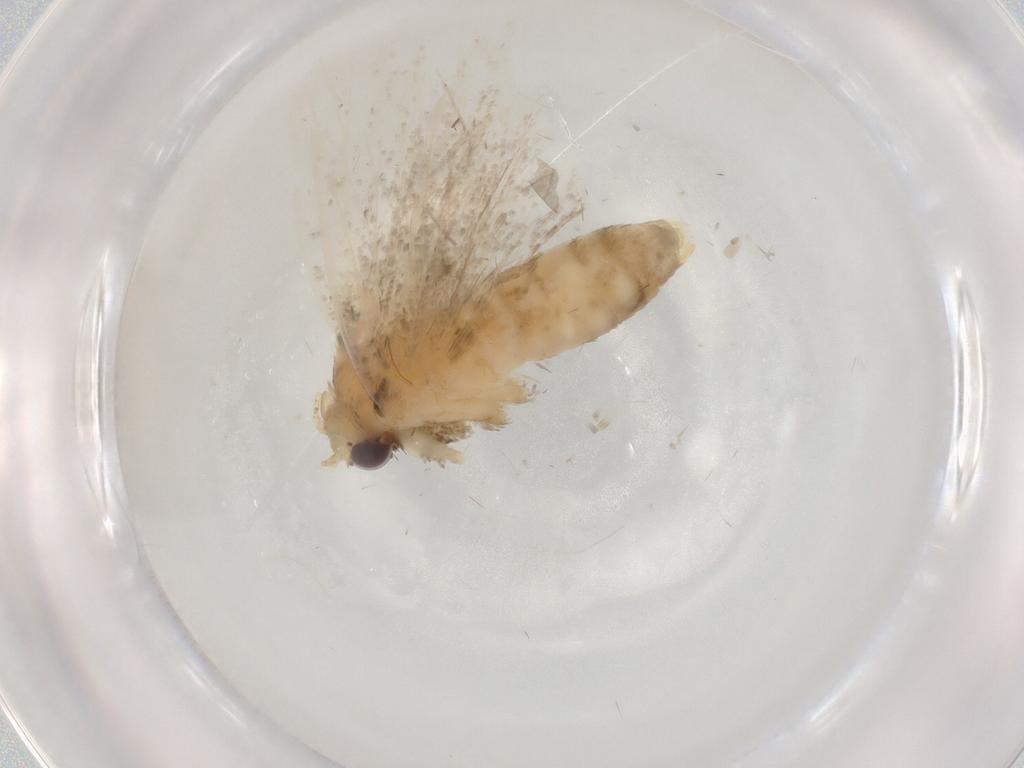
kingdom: Animalia
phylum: Arthropoda
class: Insecta
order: Lepidoptera
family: Erebidae
